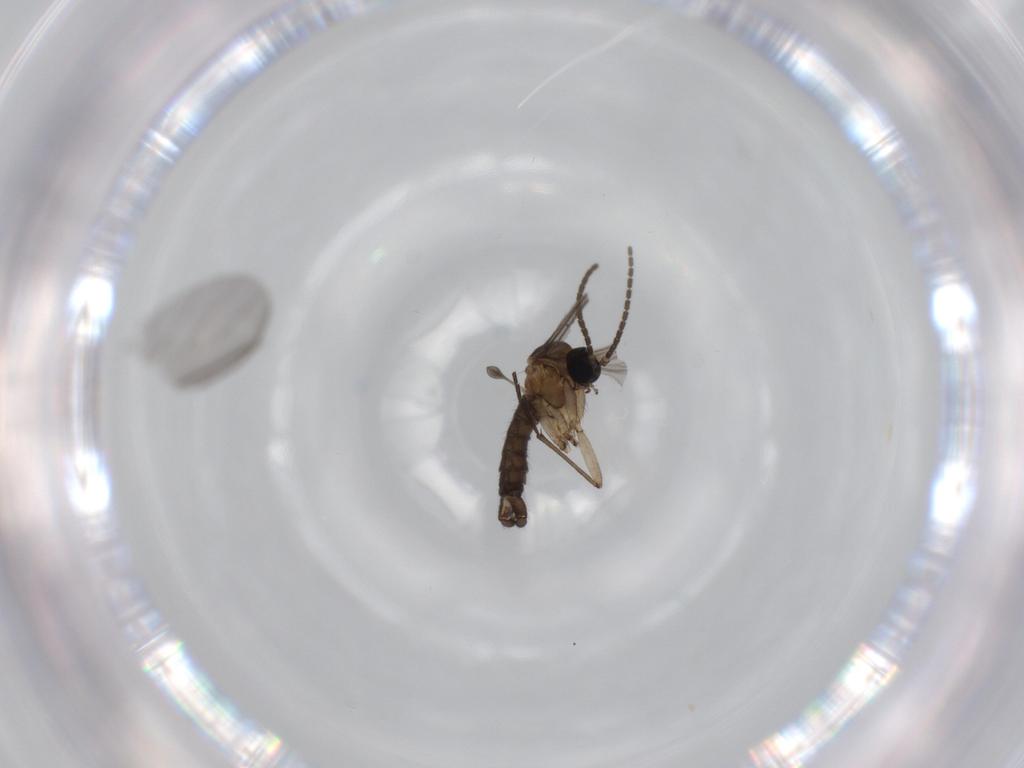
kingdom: Animalia
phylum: Arthropoda
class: Insecta
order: Diptera
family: Sciaridae
